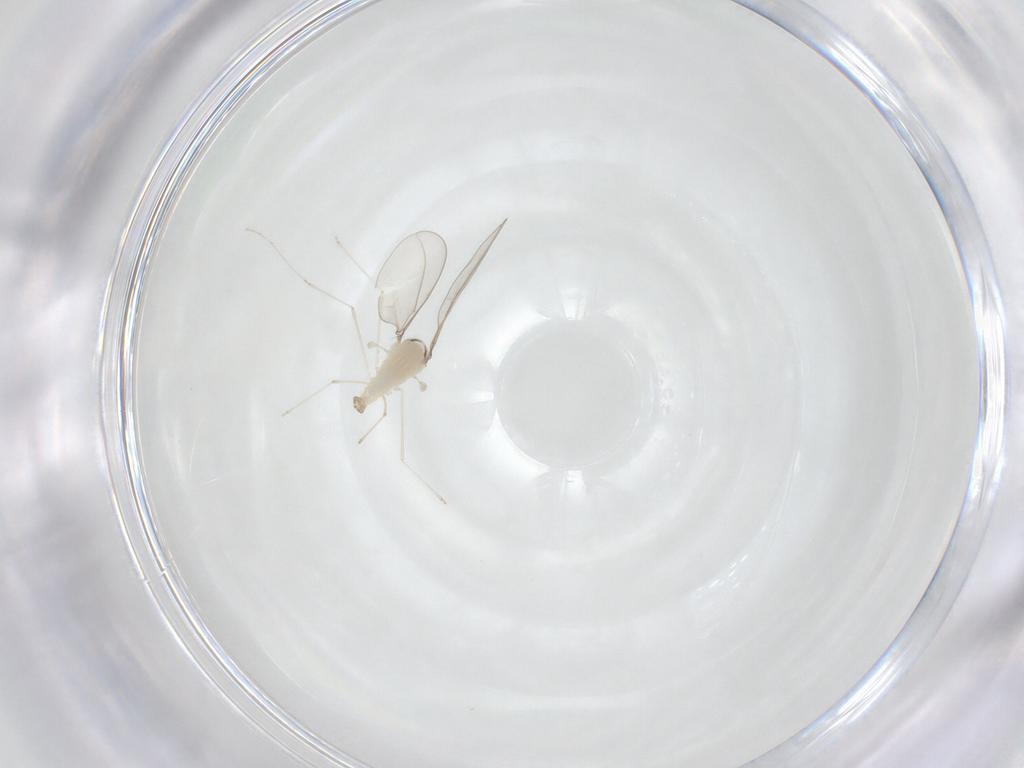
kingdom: Animalia
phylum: Arthropoda
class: Insecta
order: Diptera
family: Cecidomyiidae
